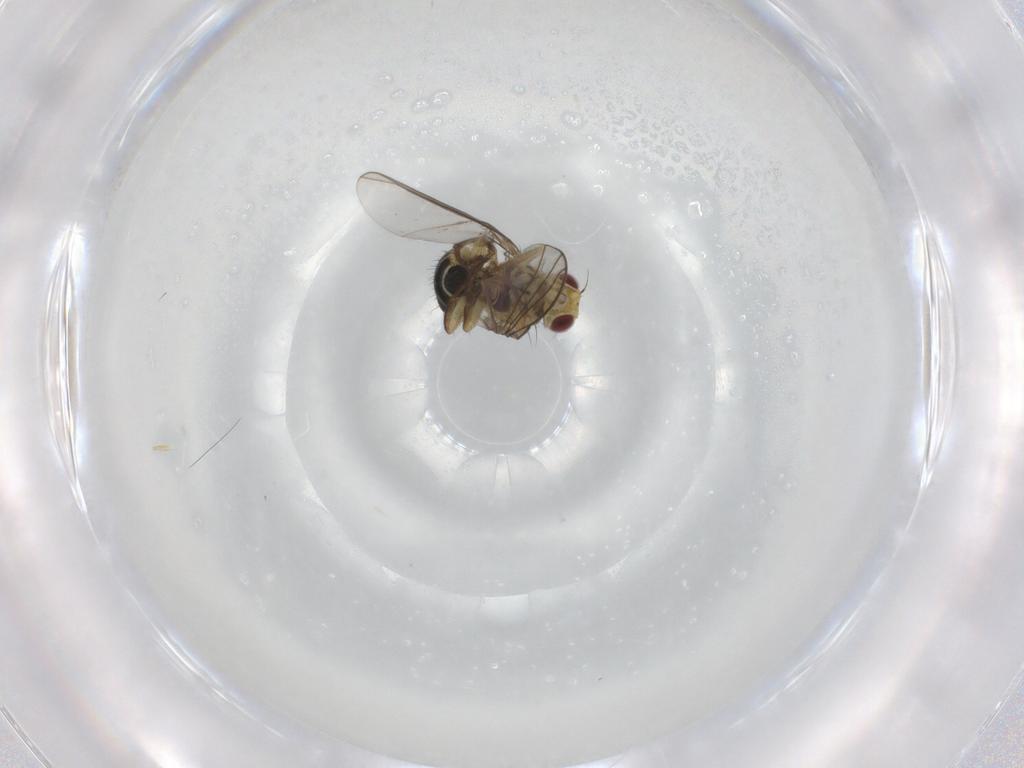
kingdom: Animalia
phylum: Arthropoda
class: Insecta
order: Diptera
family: Agromyzidae
